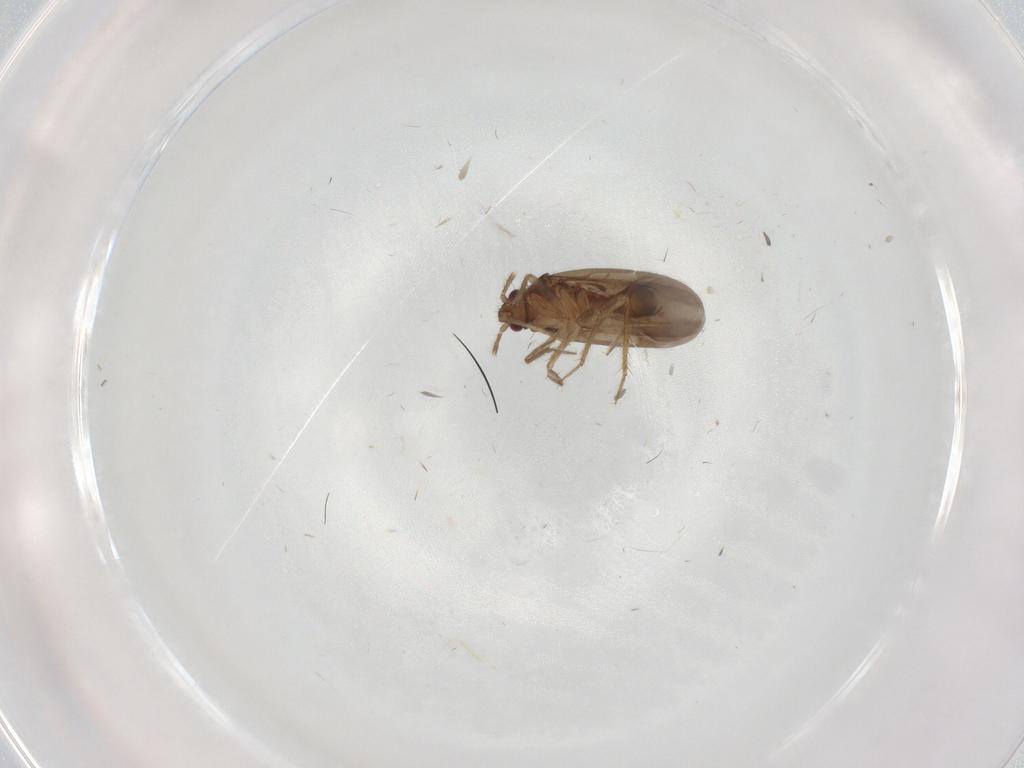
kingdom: Animalia
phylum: Arthropoda
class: Insecta
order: Hemiptera
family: Ceratocombidae
